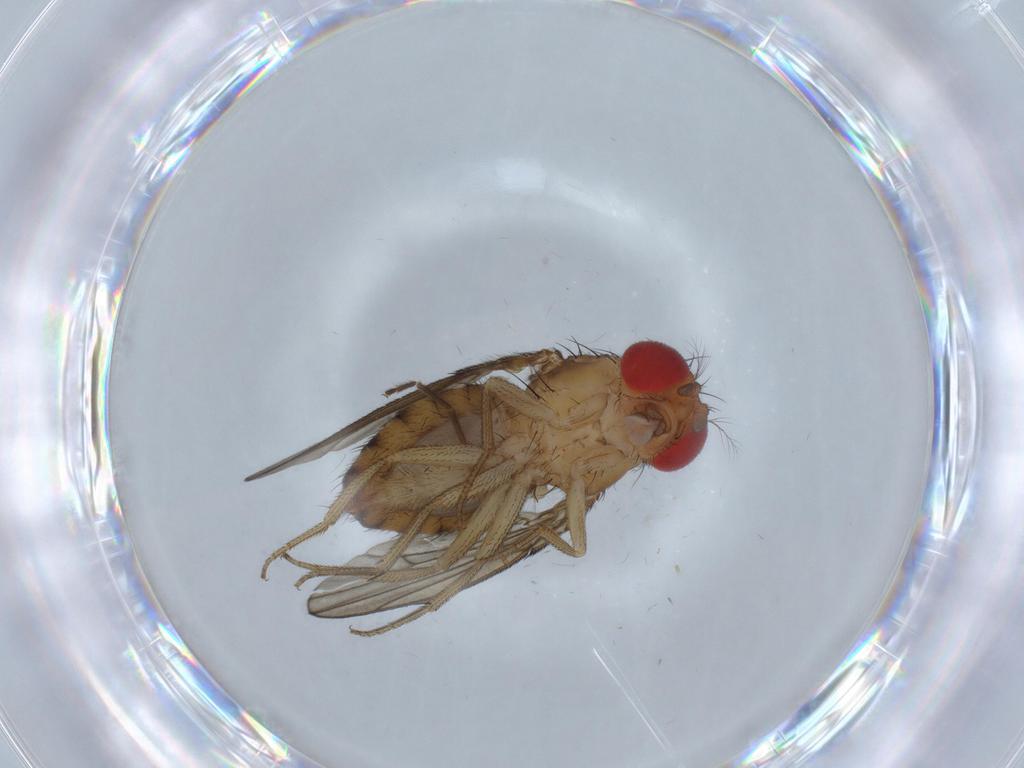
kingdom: Animalia
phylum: Arthropoda
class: Insecta
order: Diptera
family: Drosophilidae
